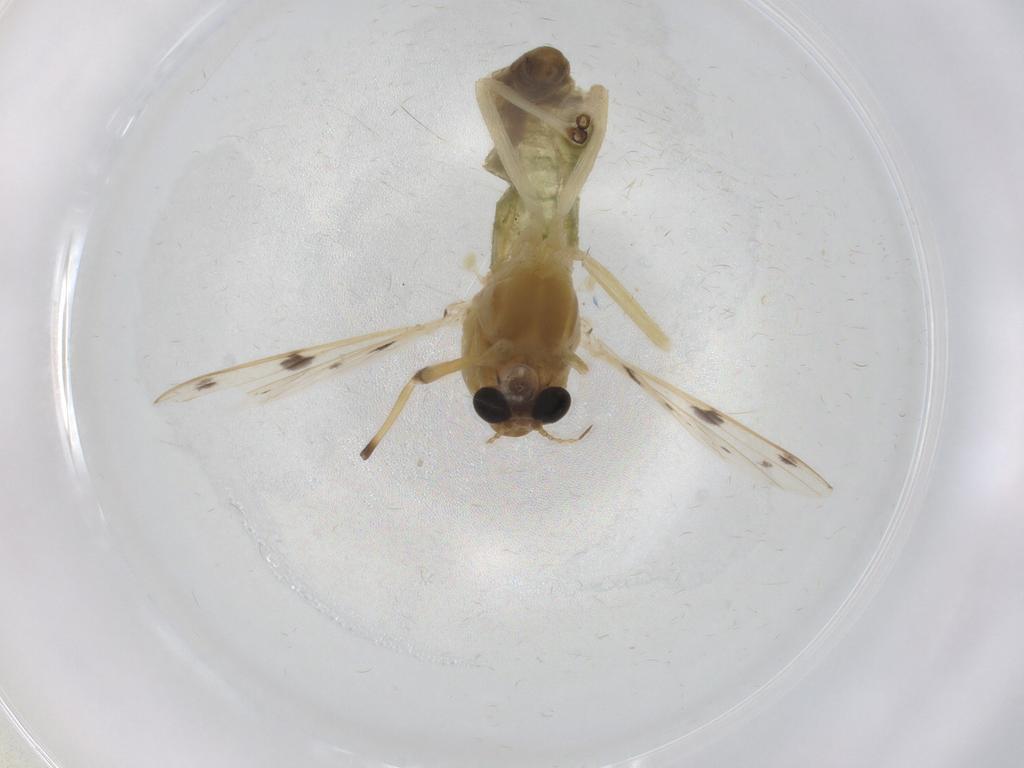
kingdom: Animalia
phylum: Arthropoda
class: Insecta
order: Diptera
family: Chironomidae
